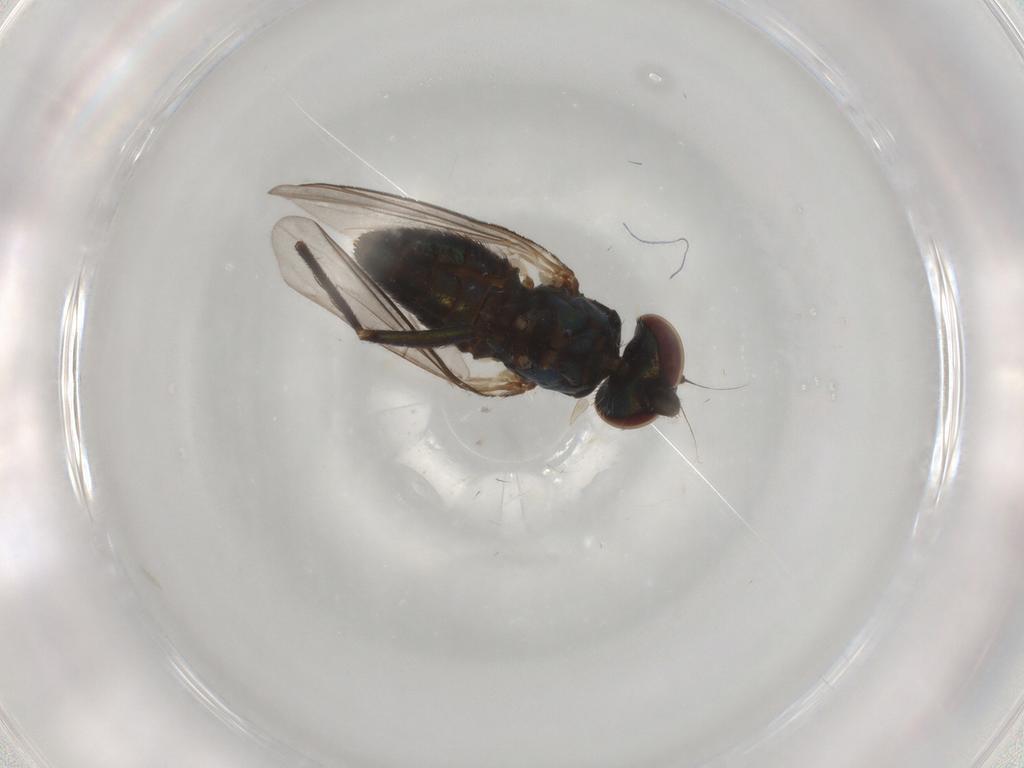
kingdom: Animalia
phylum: Arthropoda
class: Insecta
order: Diptera
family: Dolichopodidae
